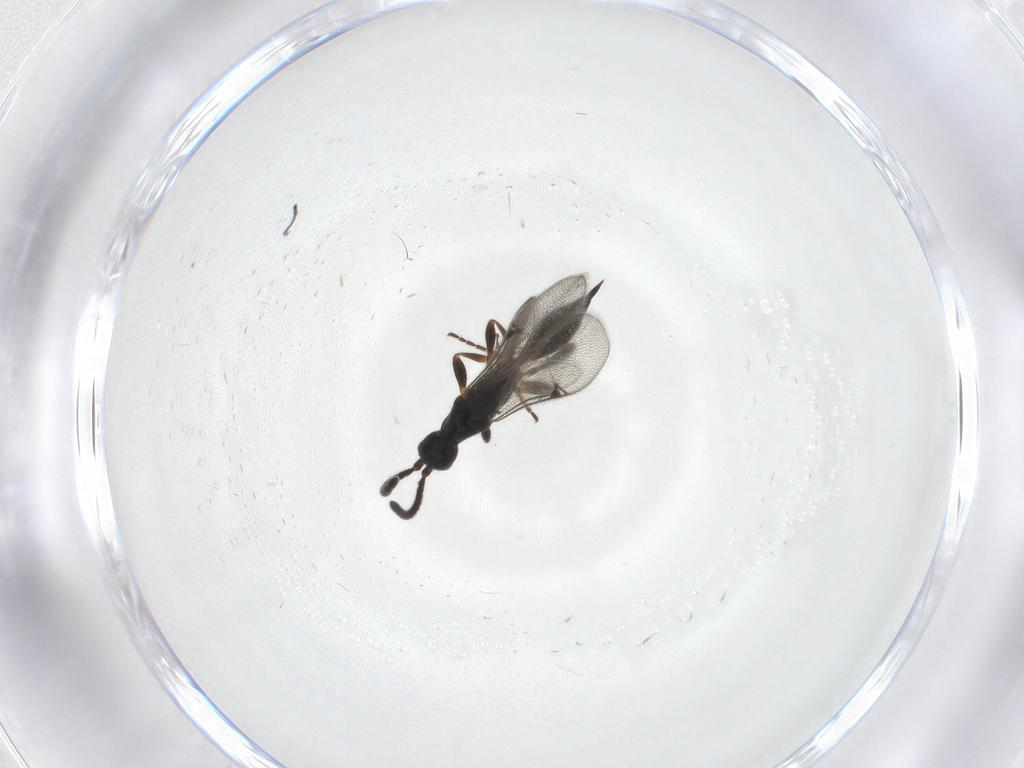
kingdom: Animalia
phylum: Arthropoda
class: Insecta
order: Hymenoptera
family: Proctotrupidae
